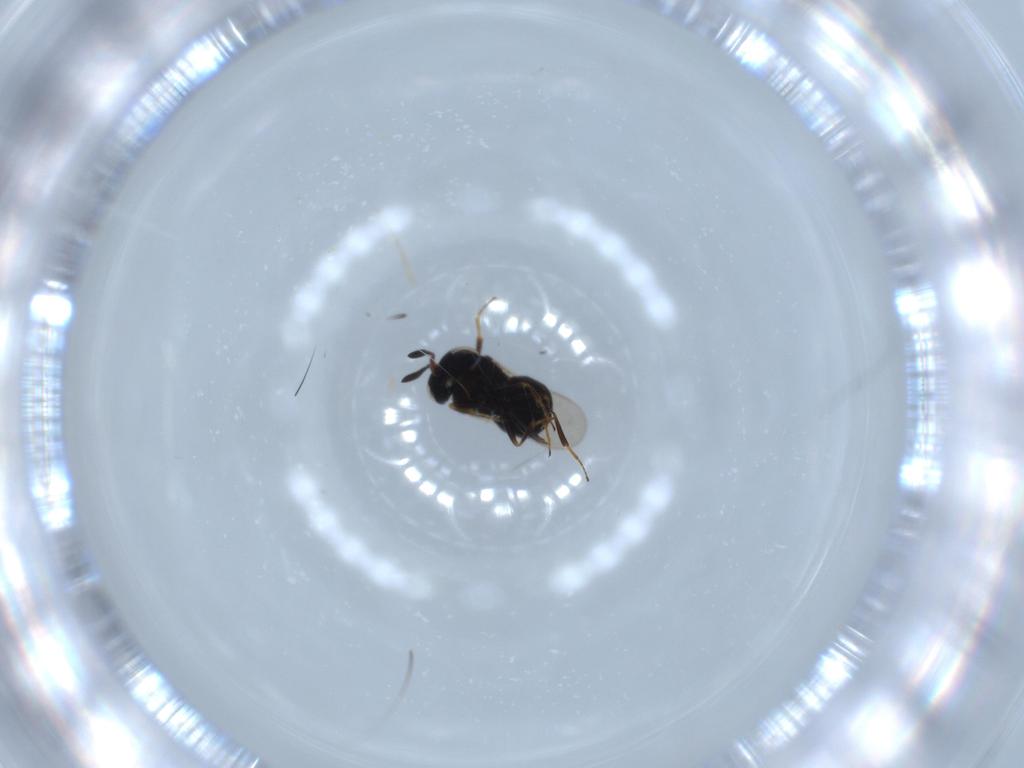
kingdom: Animalia
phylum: Arthropoda
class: Insecta
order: Hymenoptera
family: Scelionidae
